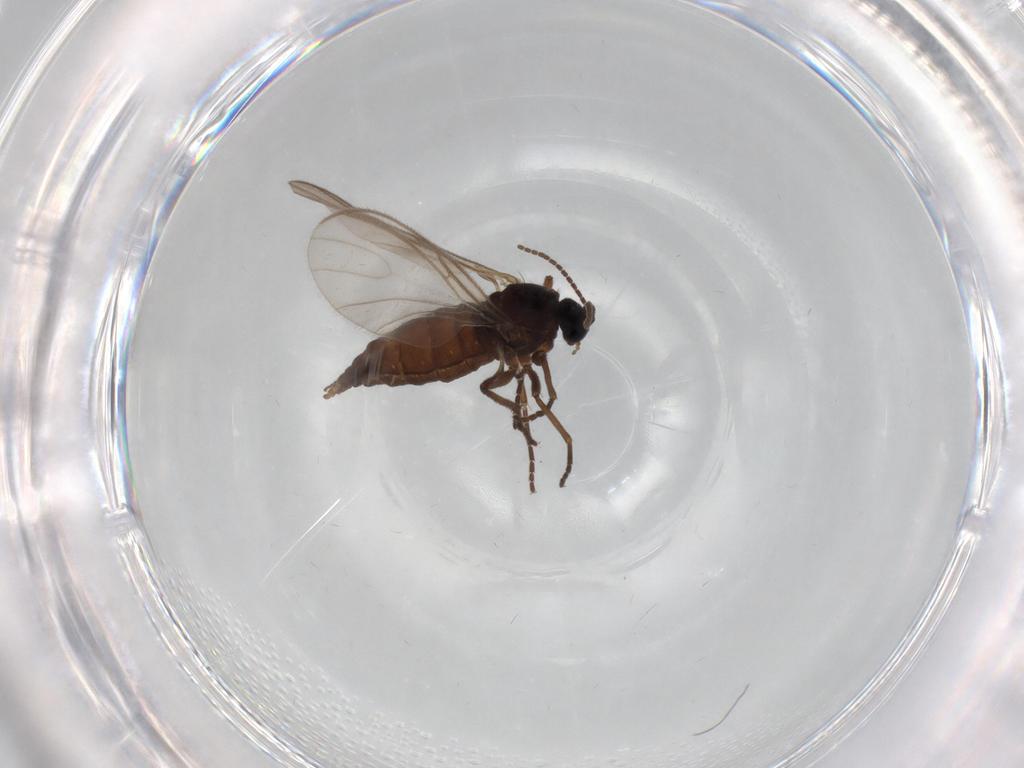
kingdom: Animalia
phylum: Arthropoda
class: Insecta
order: Diptera
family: Sciaridae
